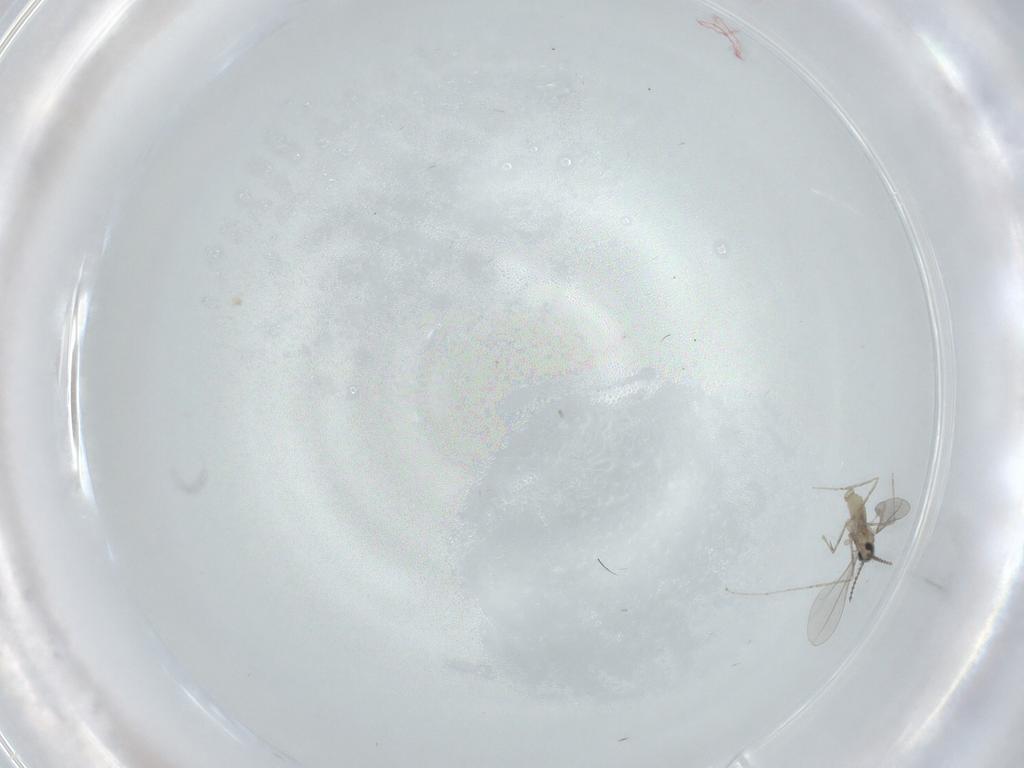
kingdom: Animalia
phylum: Arthropoda
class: Insecta
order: Diptera
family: Cecidomyiidae
